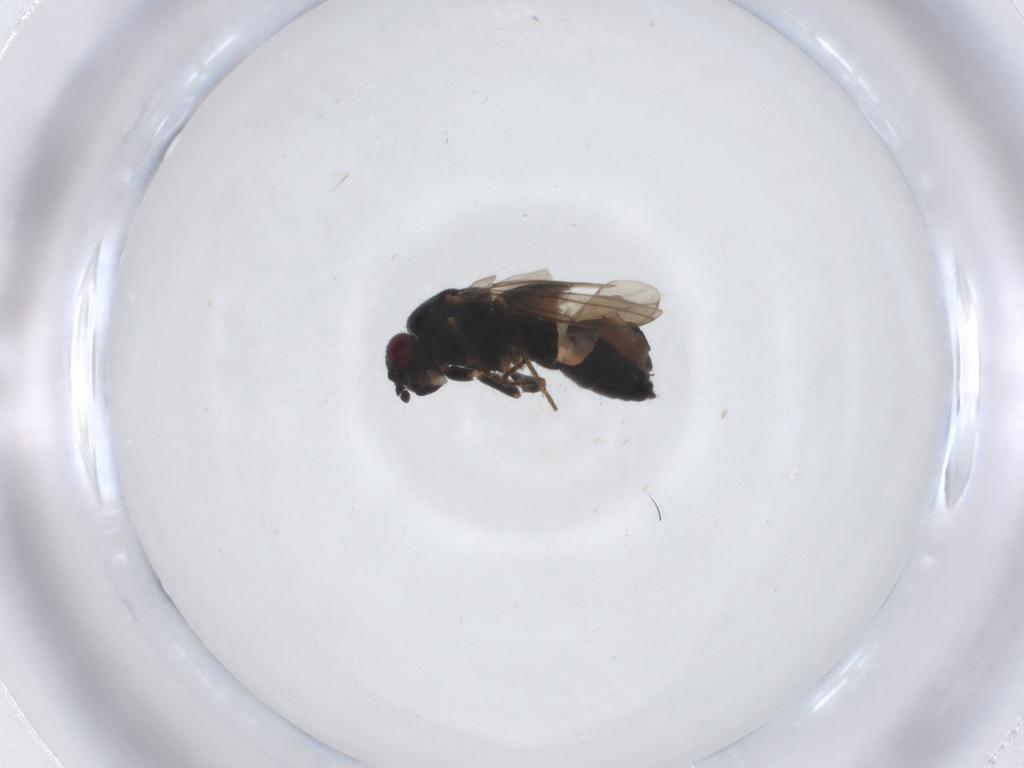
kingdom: Animalia
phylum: Arthropoda
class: Insecta
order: Diptera
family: Sphaeroceridae
